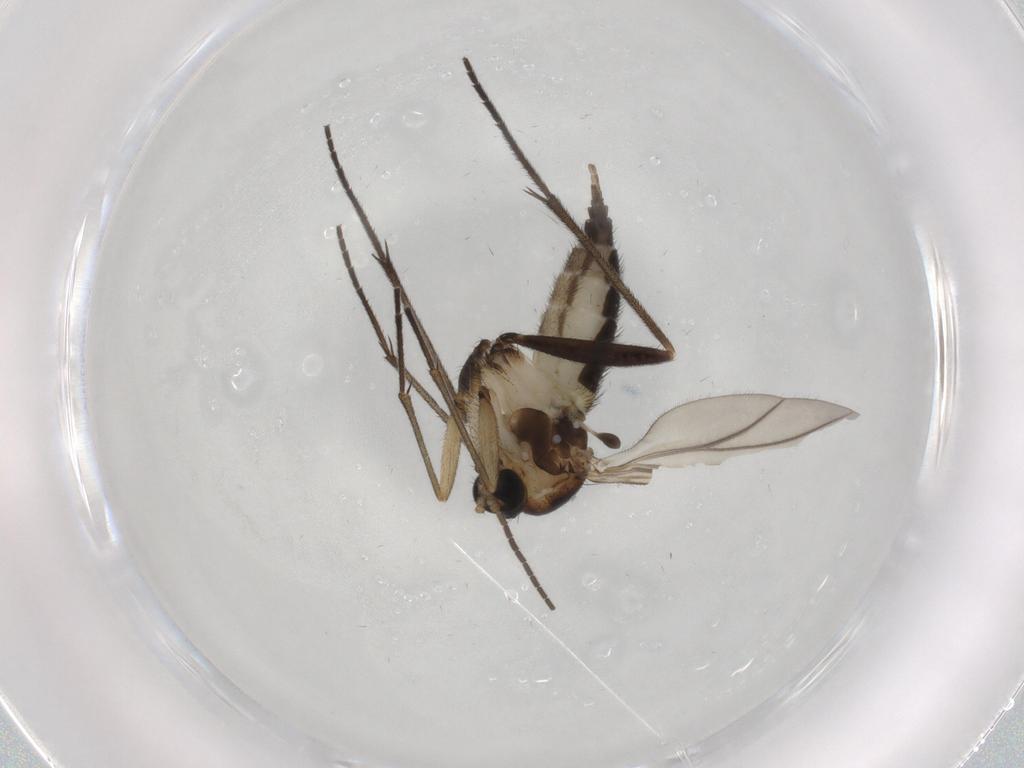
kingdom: Animalia
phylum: Arthropoda
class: Insecta
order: Diptera
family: Sciaridae
